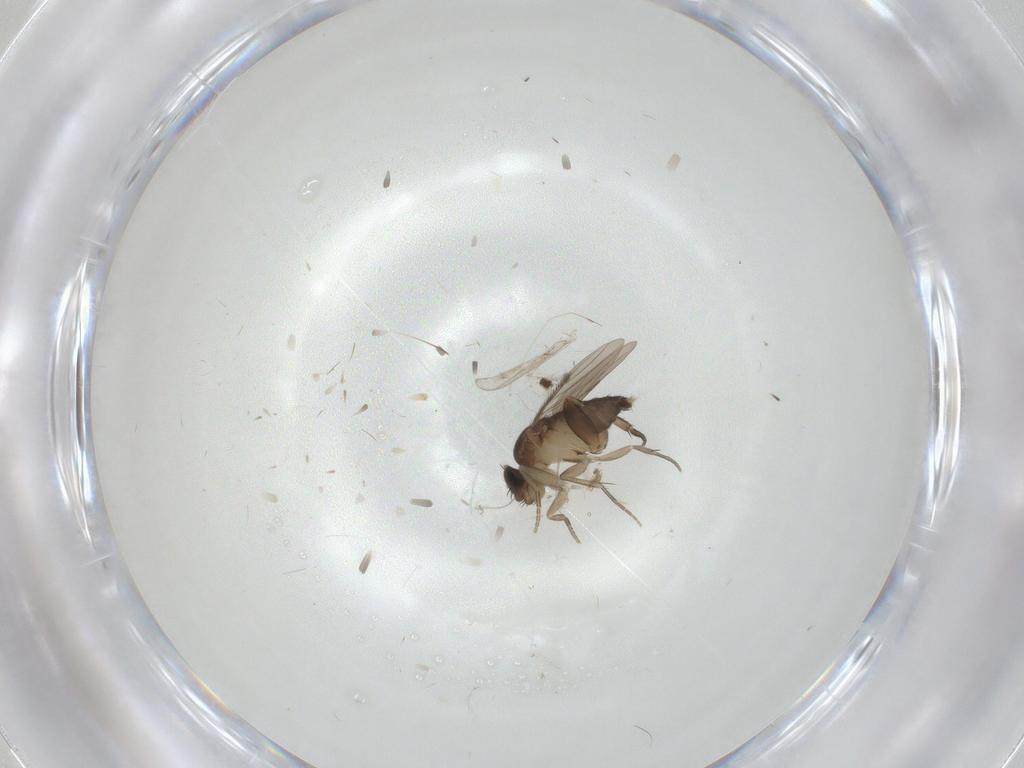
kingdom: Animalia
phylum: Arthropoda
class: Insecta
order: Diptera
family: Phoridae
